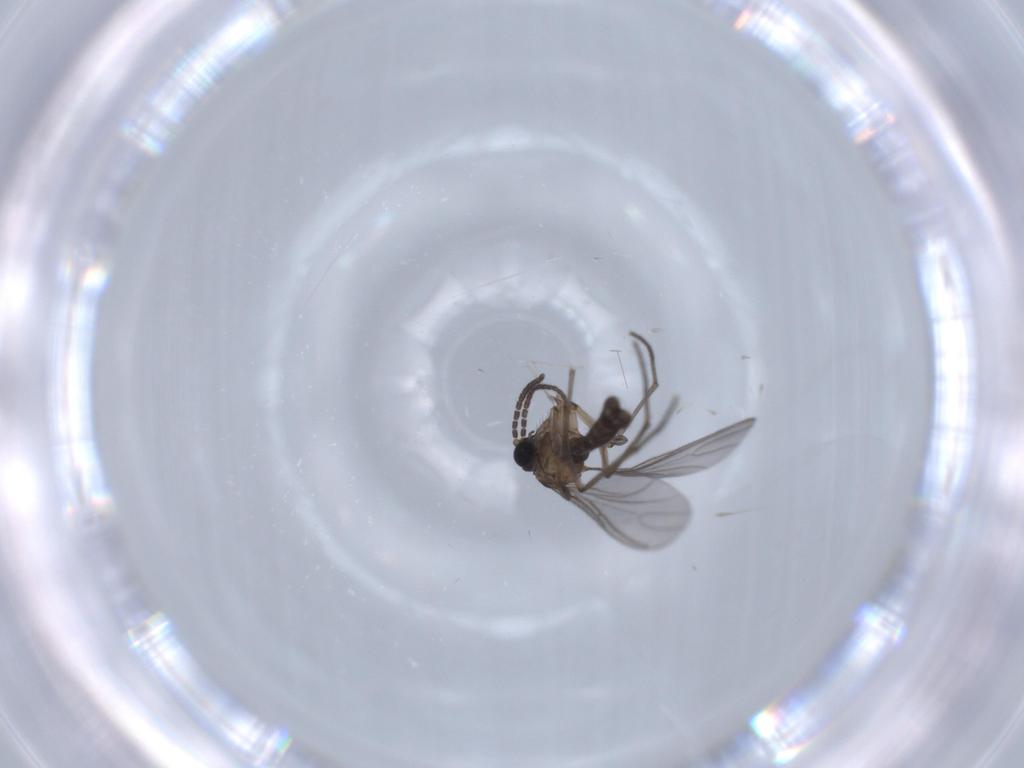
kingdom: Animalia
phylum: Arthropoda
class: Insecta
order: Diptera
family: Sciaridae
